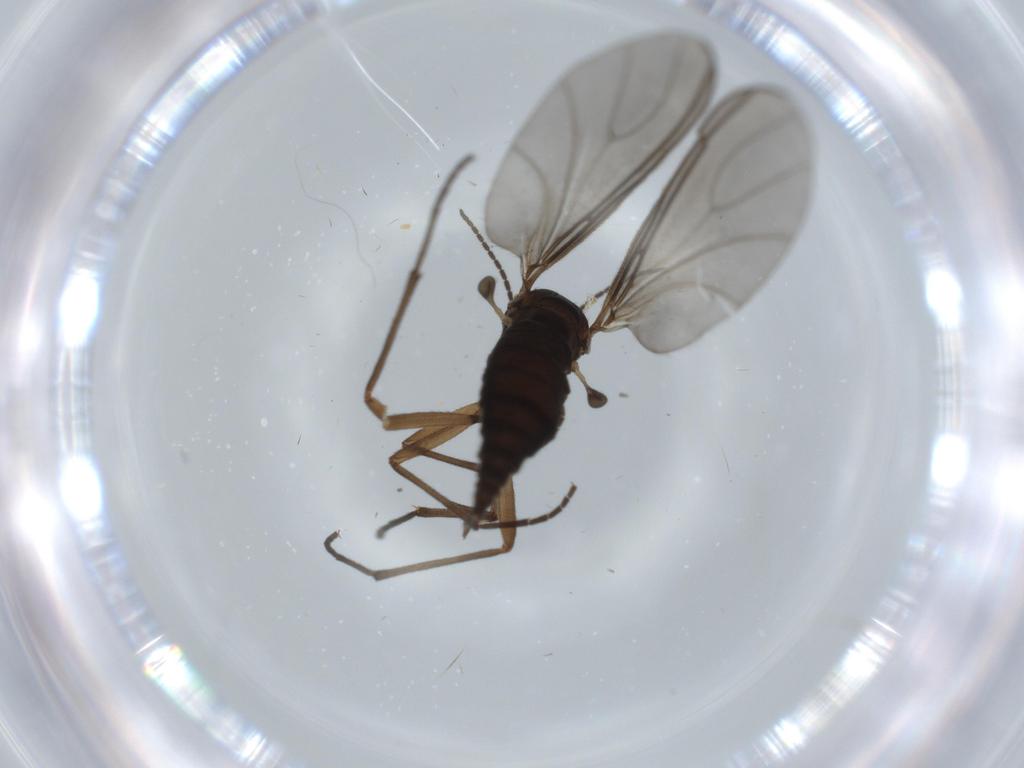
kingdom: Animalia
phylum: Arthropoda
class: Insecta
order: Diptera
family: Sciaridae
